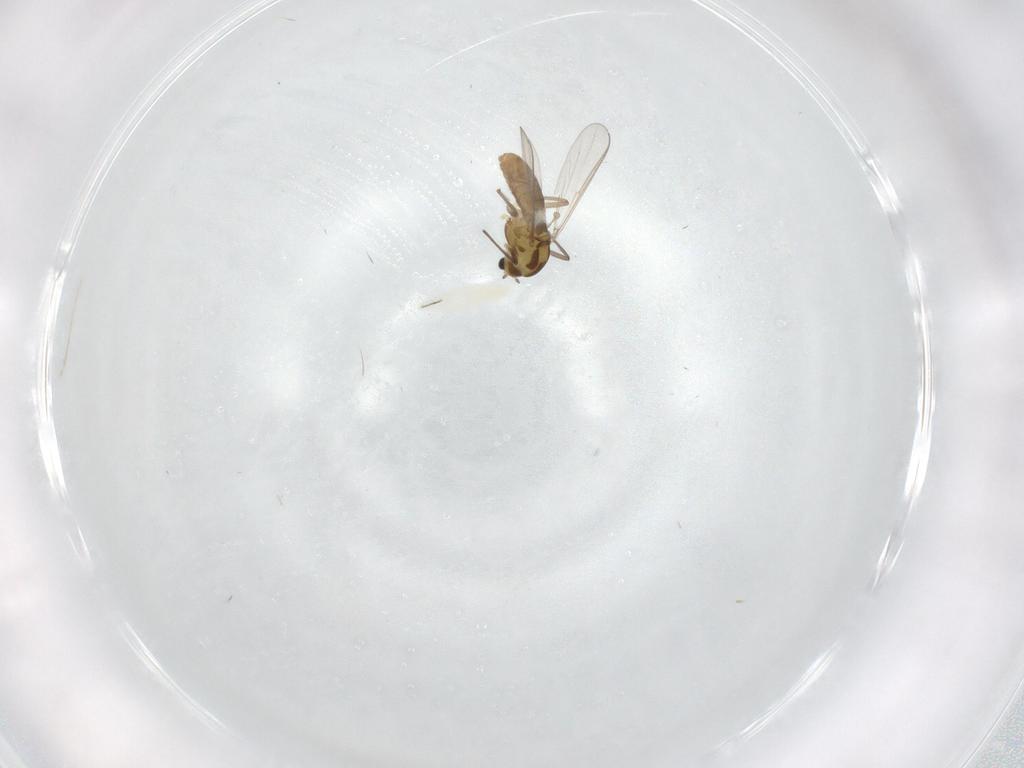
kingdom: Animalia
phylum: Arthropoda
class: Insecta
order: Diptera
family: Chironomidae
